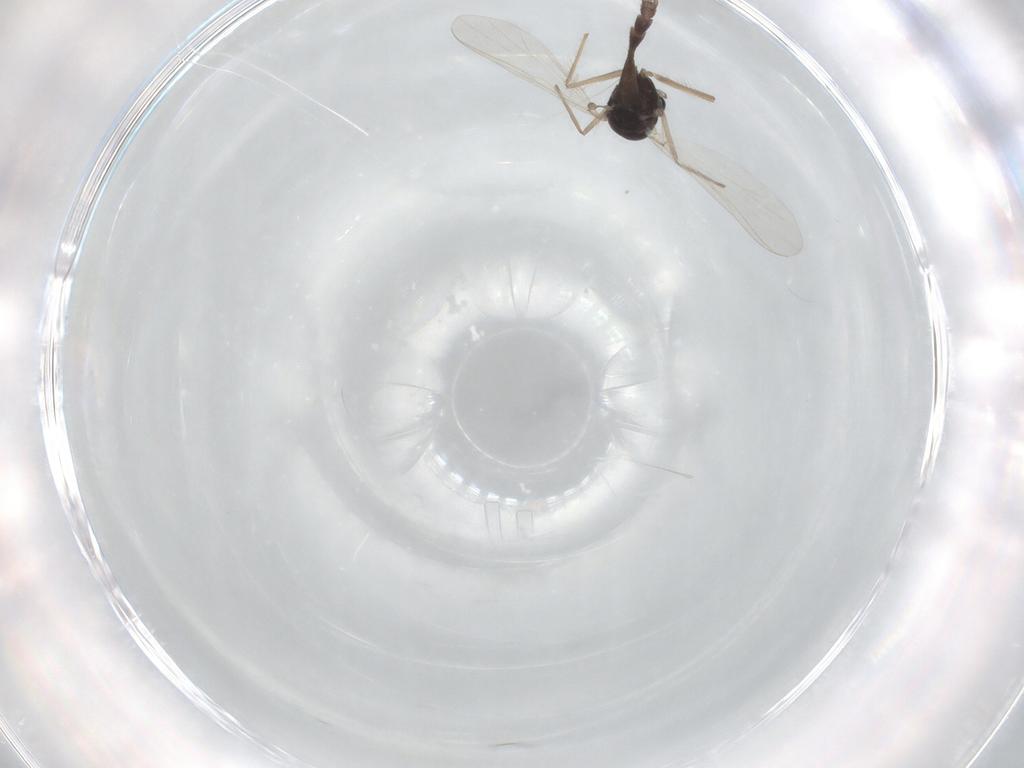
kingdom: Animalia
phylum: Arthropoda
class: Insecta
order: Diptera
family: Chironomidae
